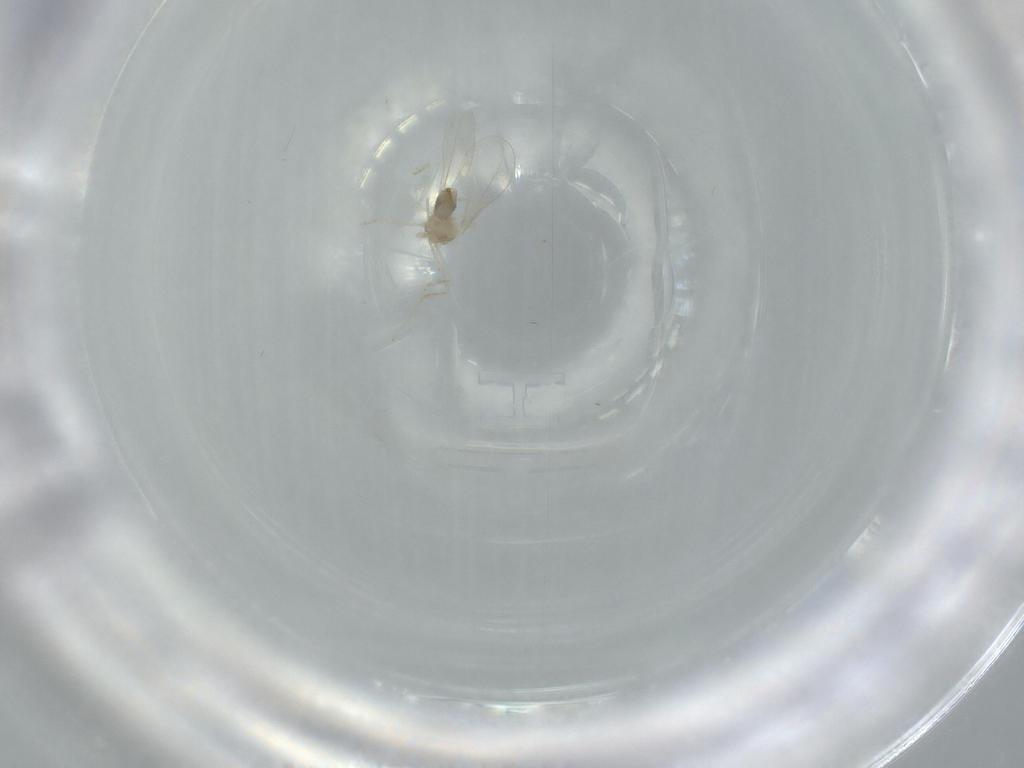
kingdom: Animalia
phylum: Arthropoda
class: Insecta
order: Diptera
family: Cecidomyiidae
